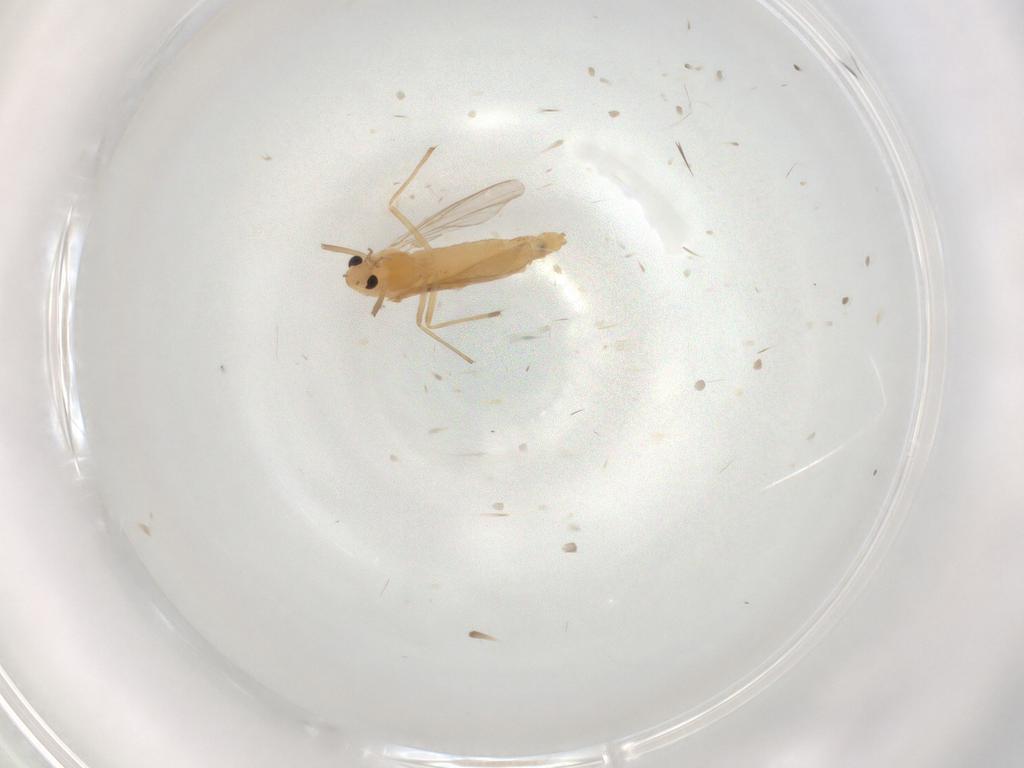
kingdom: Animalia
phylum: Arthropoda
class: Insecta
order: Diptera
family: Chironomidae
